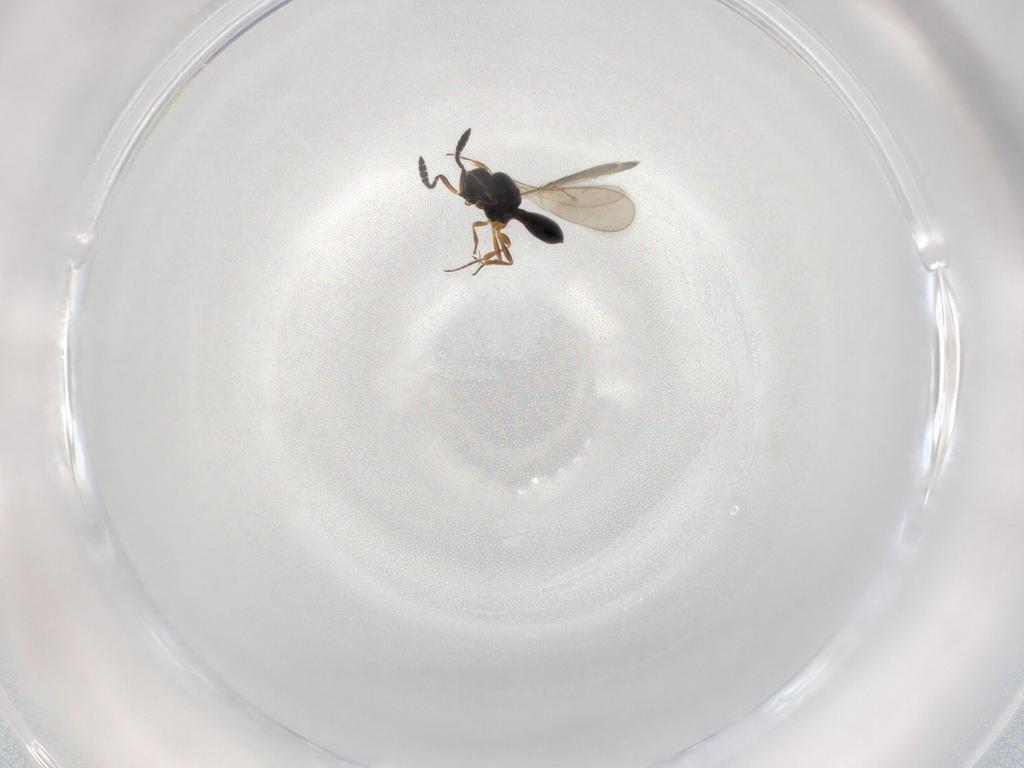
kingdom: Animalia
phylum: Arthropoda
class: Insecta
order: Hymenoptera
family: Scelionidae
